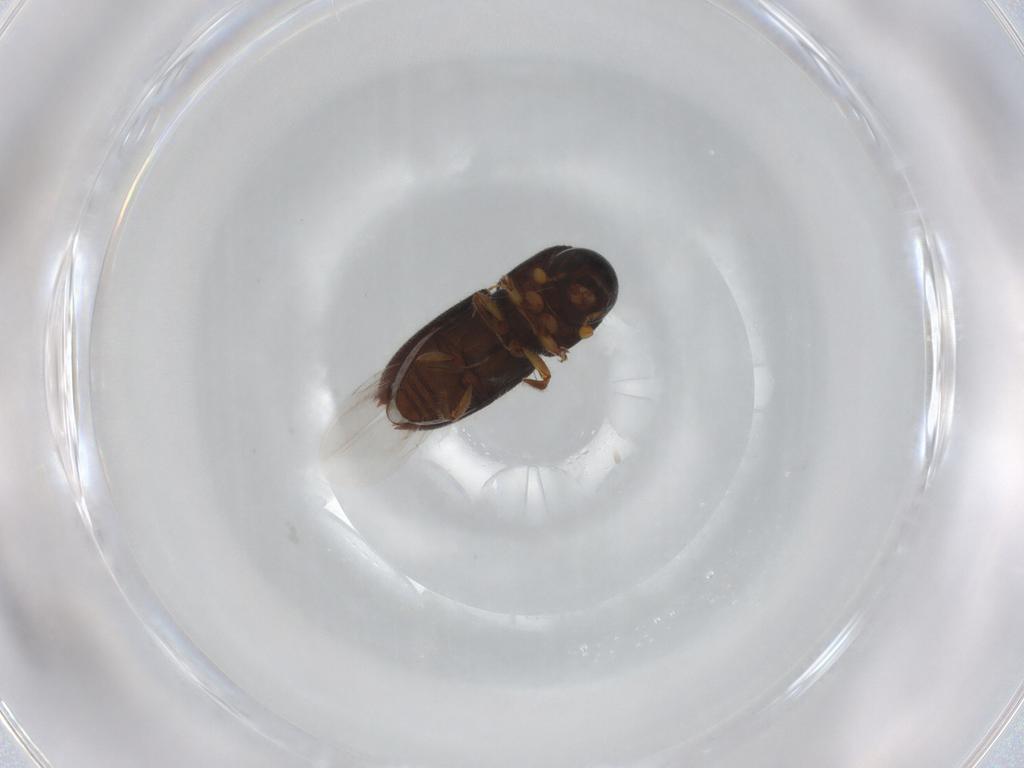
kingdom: Animalia
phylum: Arthropoda
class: Insecta
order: Coleoptera
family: Curculionidae
